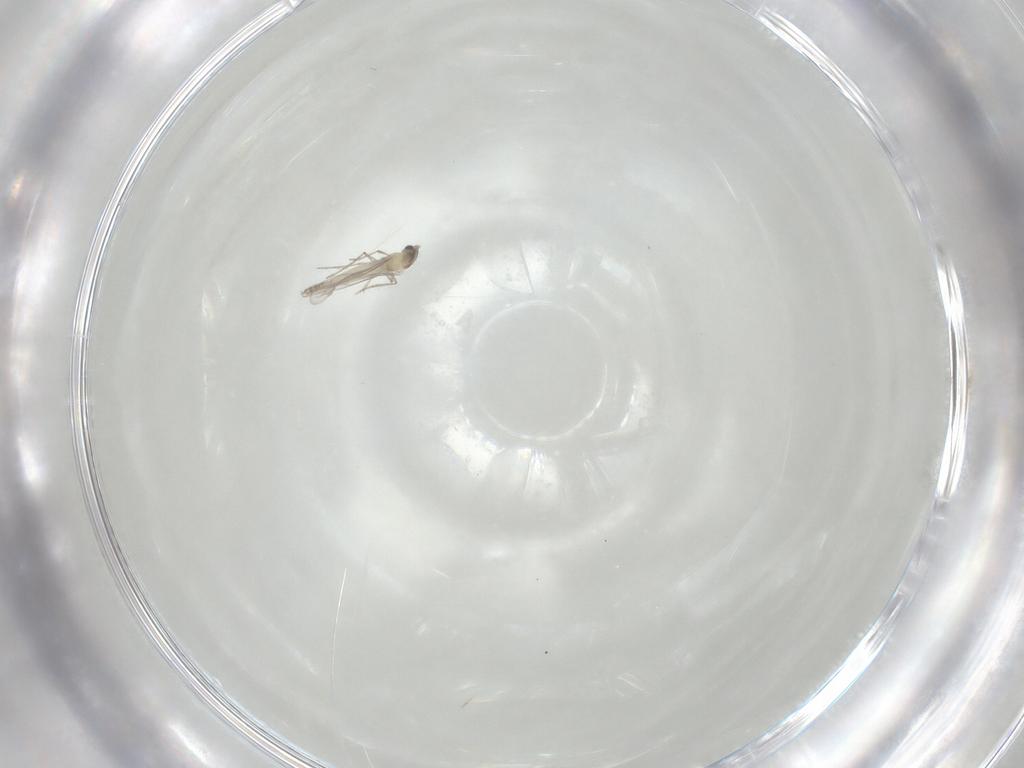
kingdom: Animalia
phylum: Arthropoda
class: Insecta
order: Diptera
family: Cecidomyiidae
